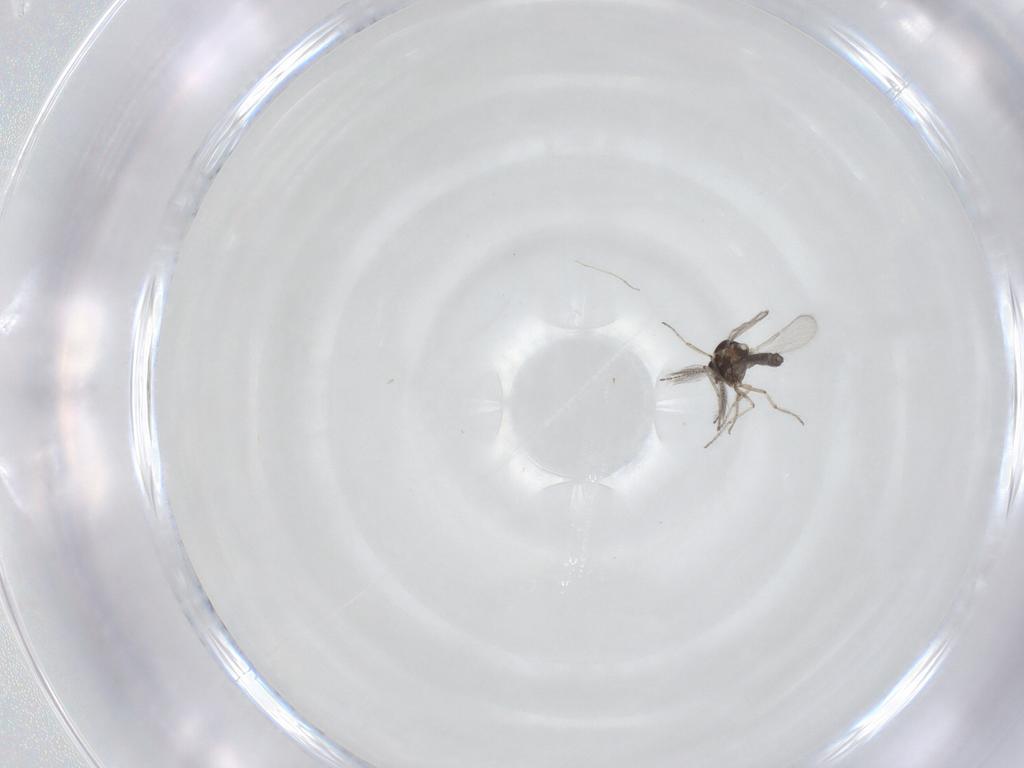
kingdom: Animalia
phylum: Arthropoda
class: Insecta
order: Diptera
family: Ceratopogonidae
